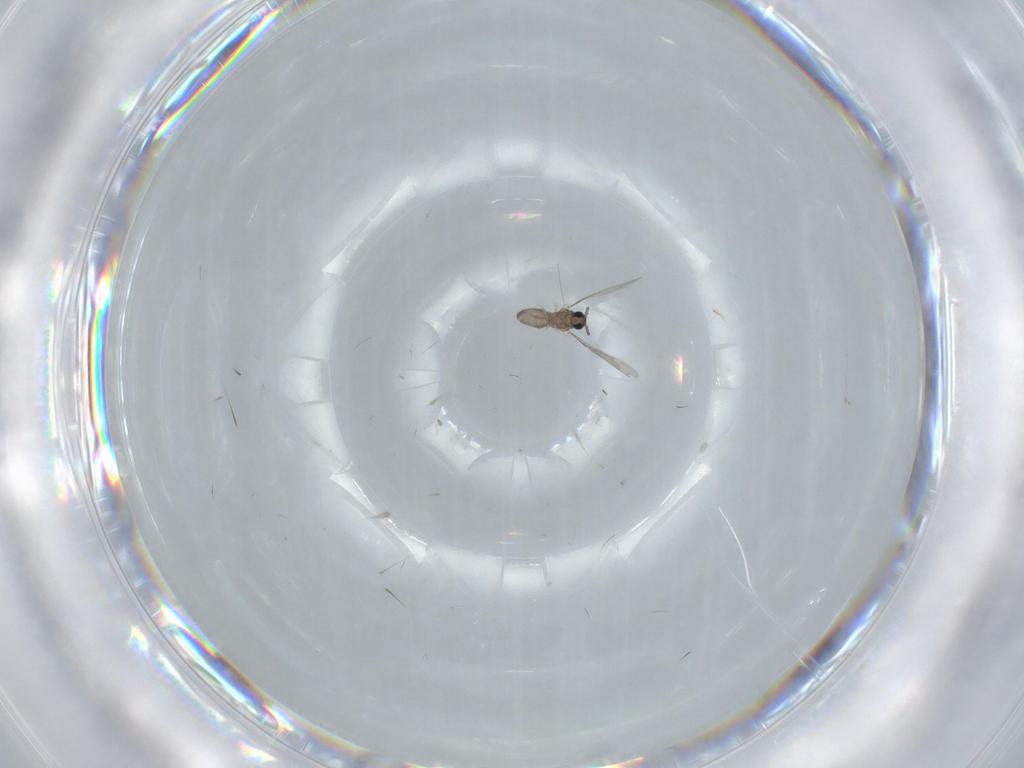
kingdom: Animalia
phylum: Arthropoda
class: Insecta
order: Diptera
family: Cecidomyiidae
